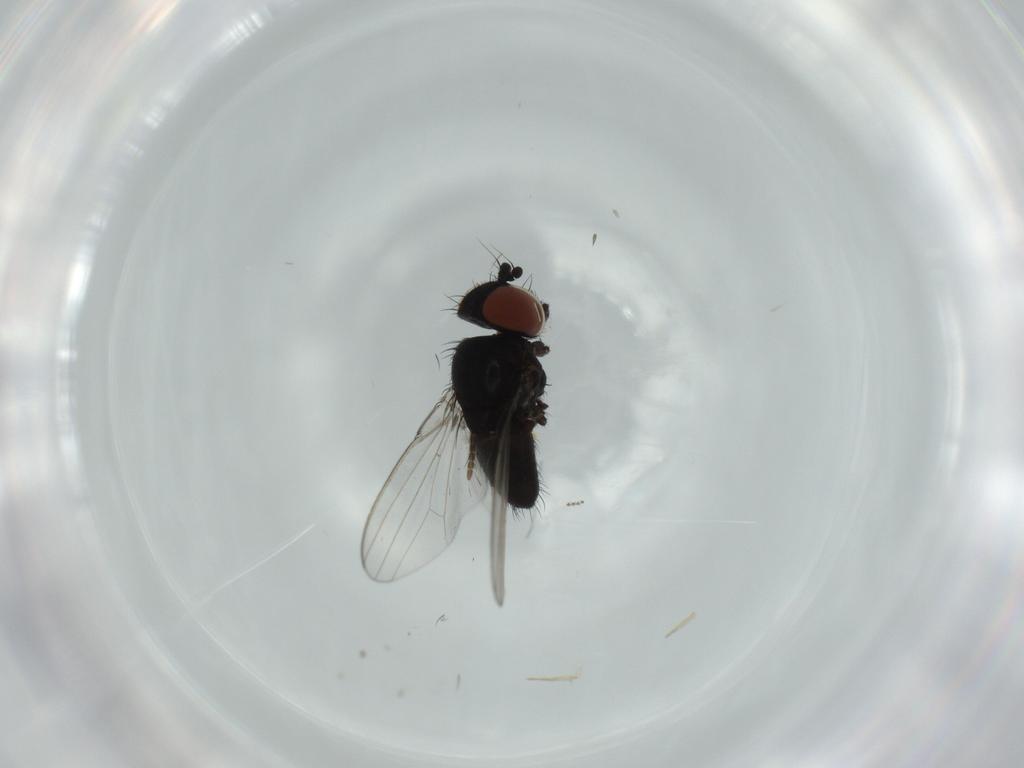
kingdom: Animalia
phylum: Arthropoda
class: Insecta
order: Diptera
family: Milichiidae
